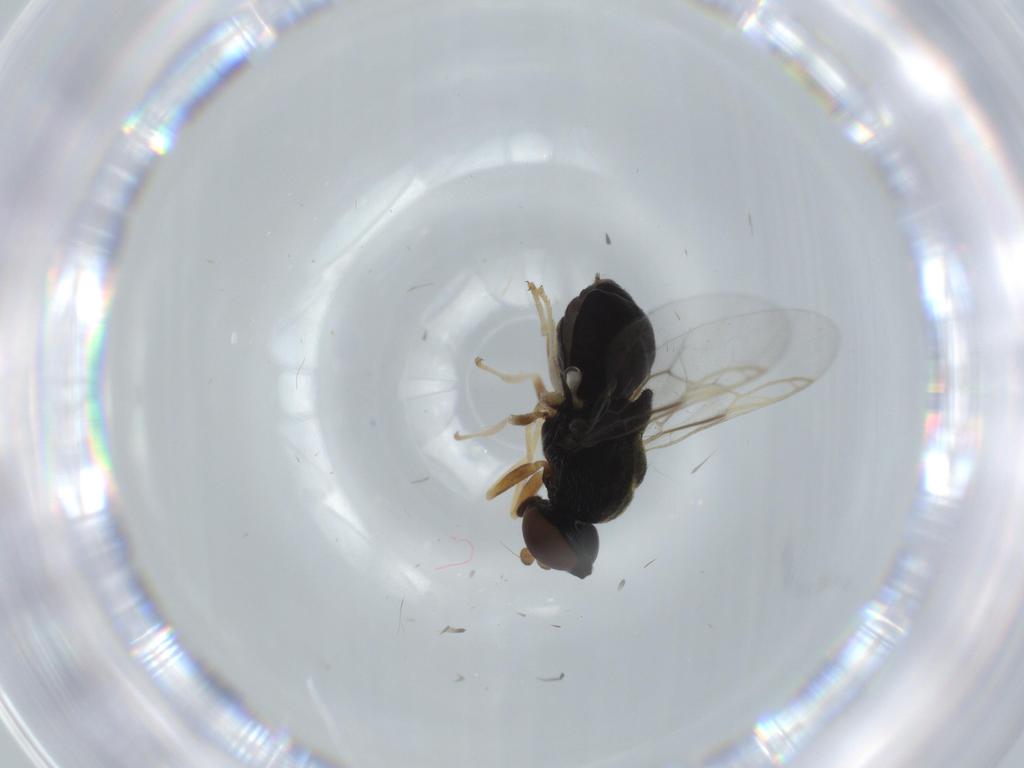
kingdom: Animalia
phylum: Arthropoda
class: Insecta
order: Diptera
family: Stratiomyidae
